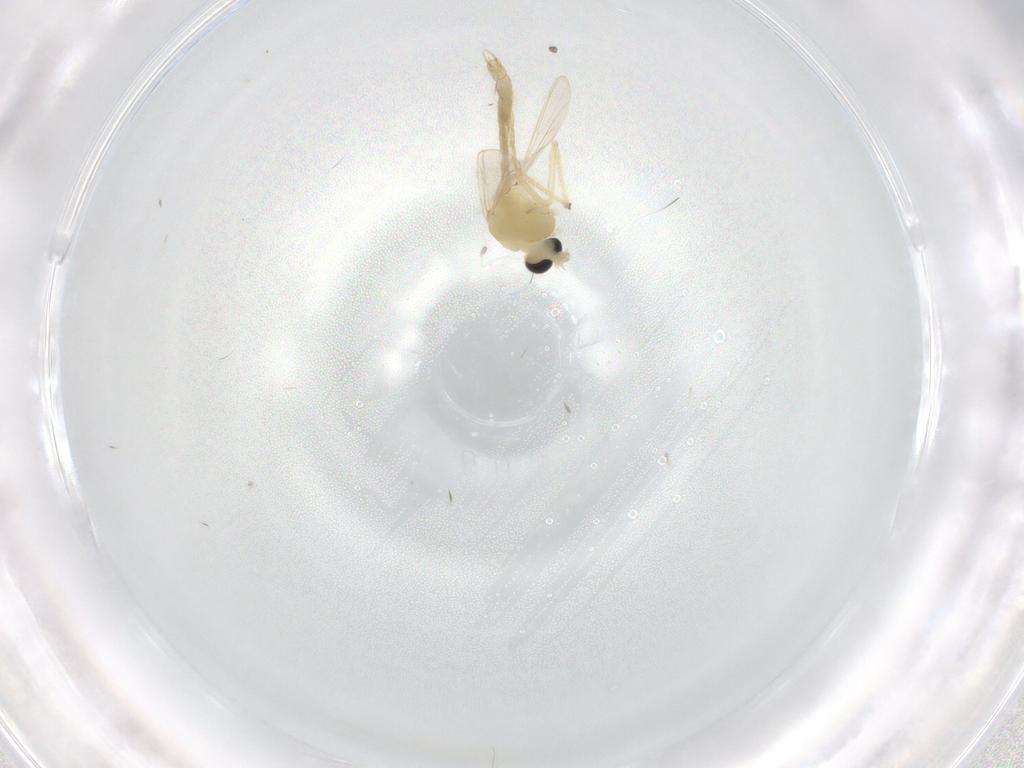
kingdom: Animalia
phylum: Arthropoda
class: Insecta
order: Diptera
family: Chironomidae
